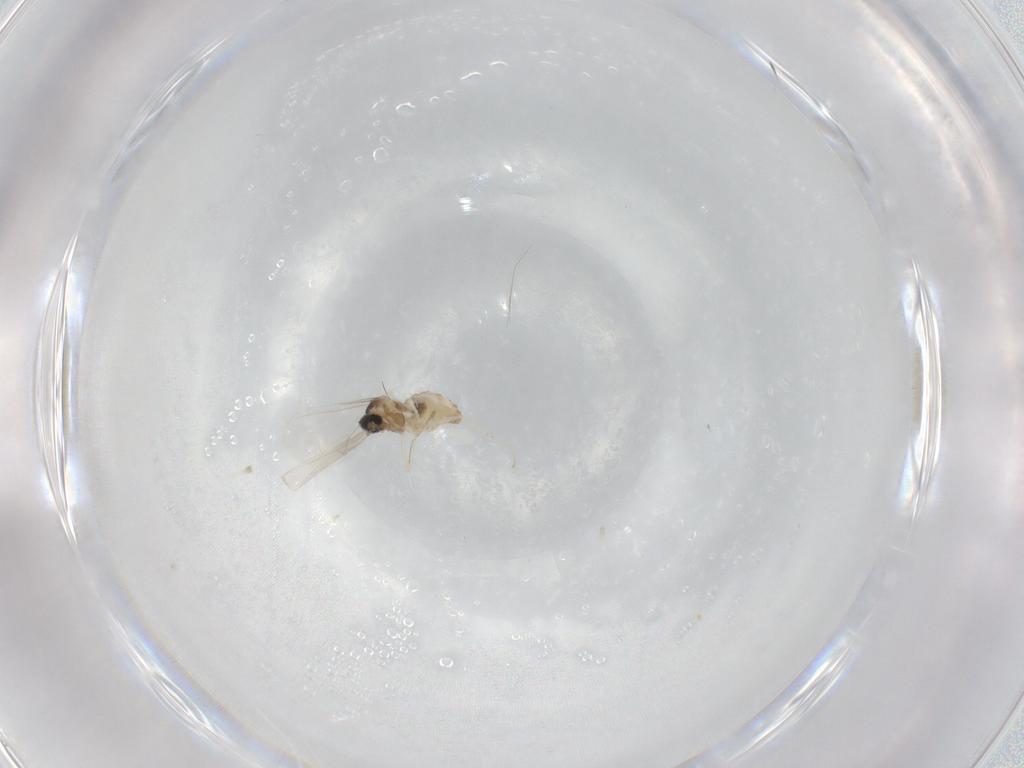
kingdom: Animalia
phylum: Arthropoda
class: Insecta
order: Diptera
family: Cecidomyiidae
